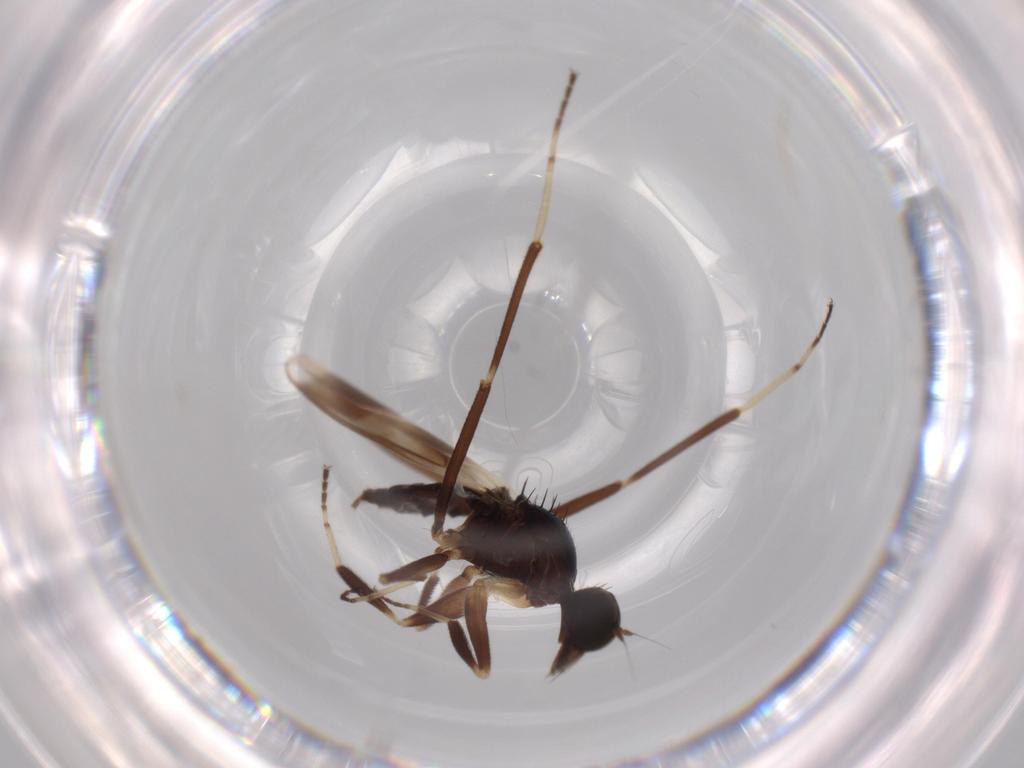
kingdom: Animalia
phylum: Arthropoda
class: Insecta
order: Diptera
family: Hybotidae
